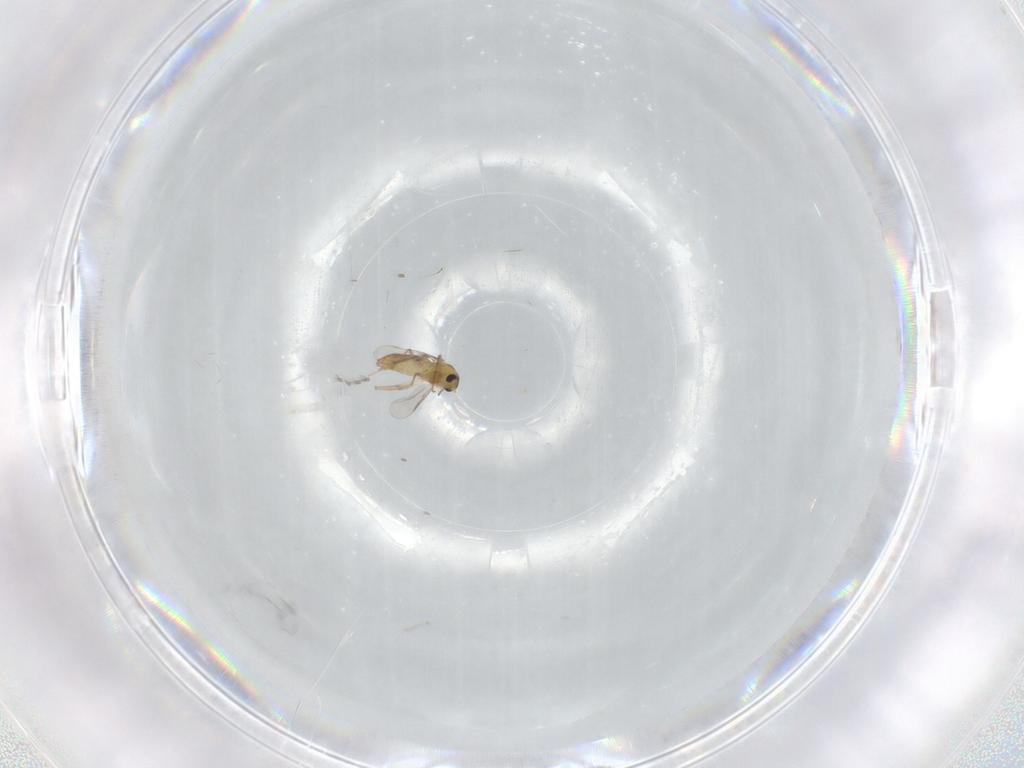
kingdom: Animalia
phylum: Arthropoda
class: Insecta
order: Diptera
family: Chironomidae
